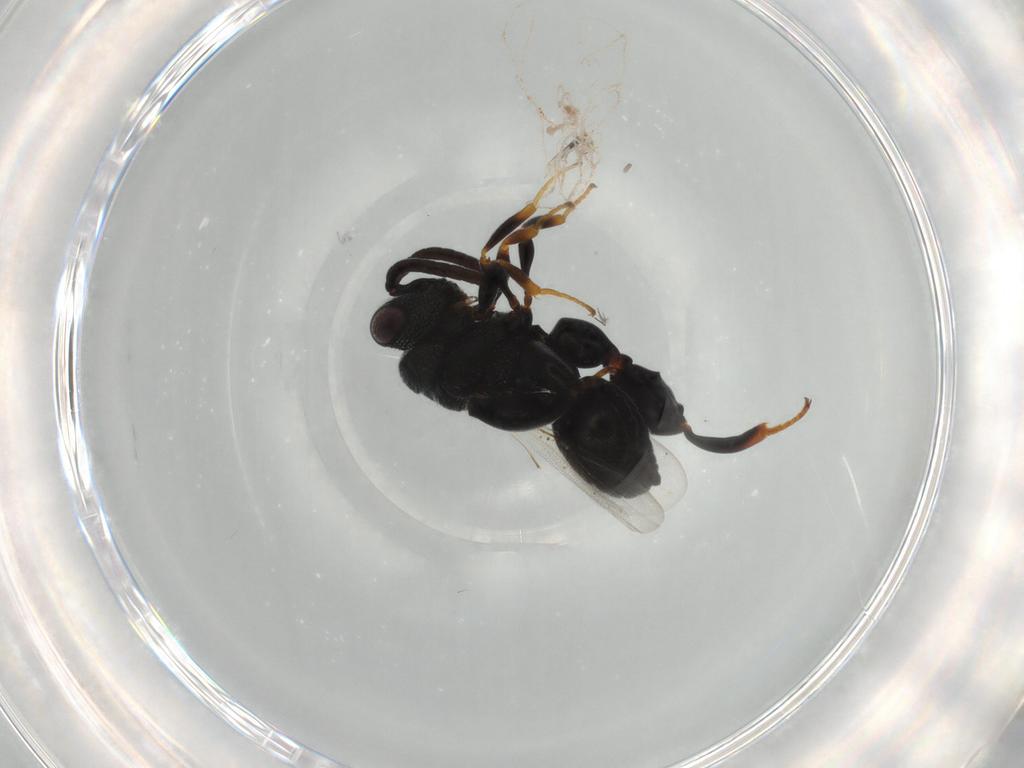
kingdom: Animalia
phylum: Arthropoda
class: Insecta
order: Hymenoptera
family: Chalcididae
